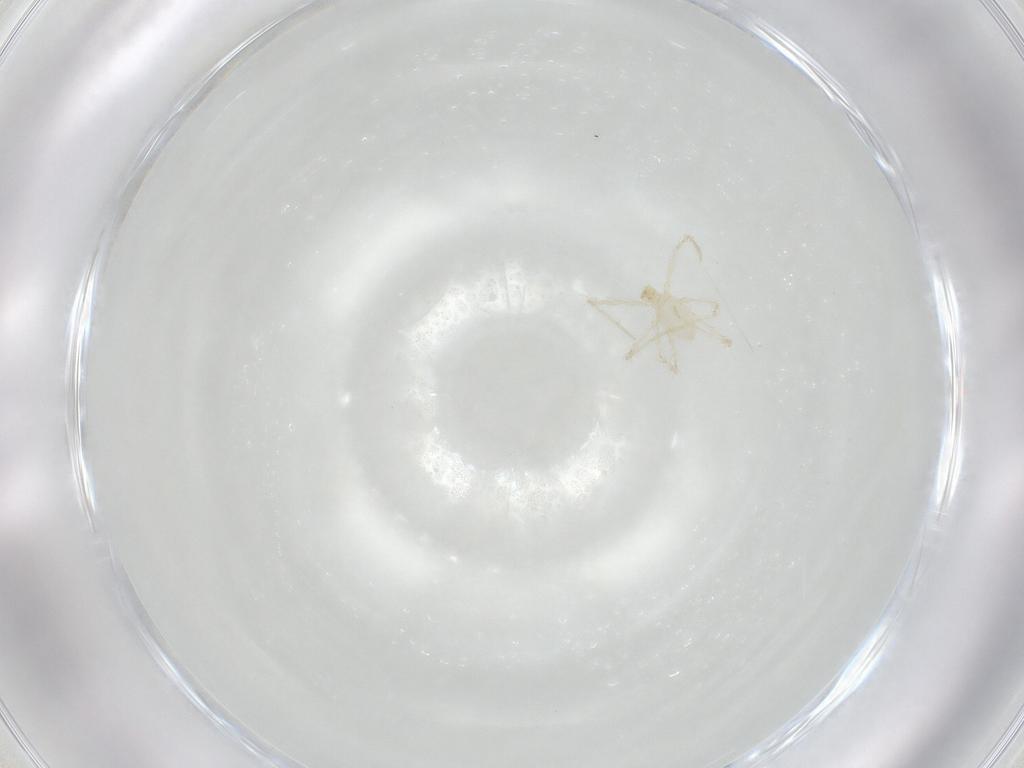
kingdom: Animalia
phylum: Arthropoda
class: Arachnida
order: Trombidiformes
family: Erythraeidae
